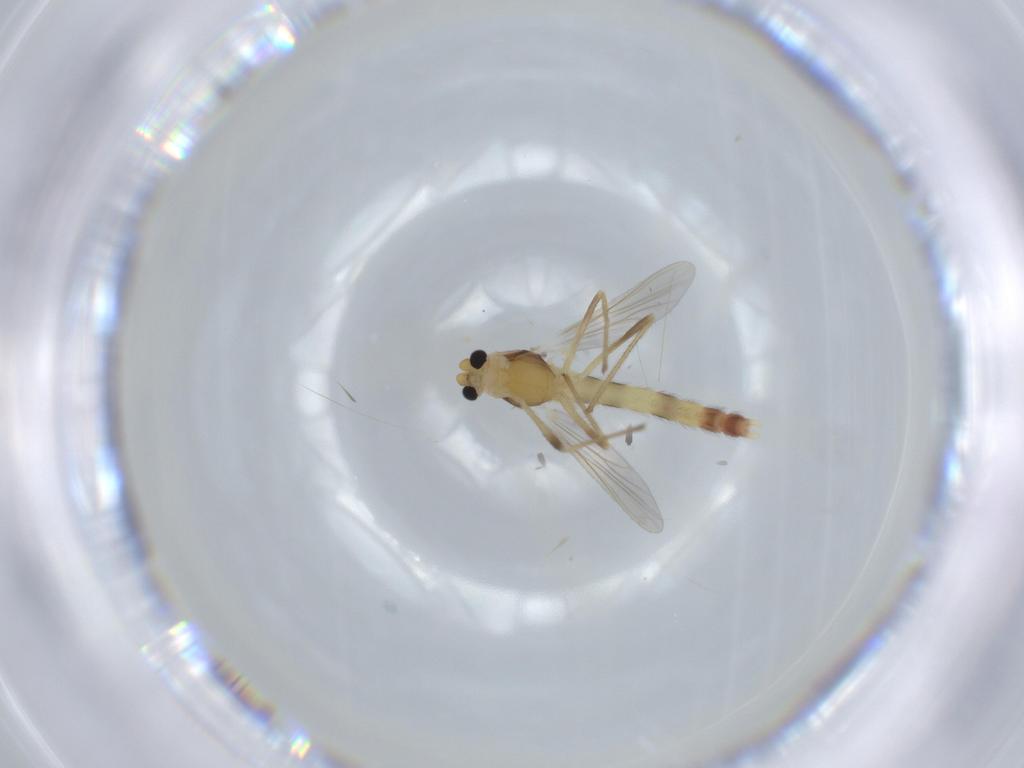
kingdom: Animalia
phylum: Arthropoda
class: Insecta
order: Diptera
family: Chironomidae
